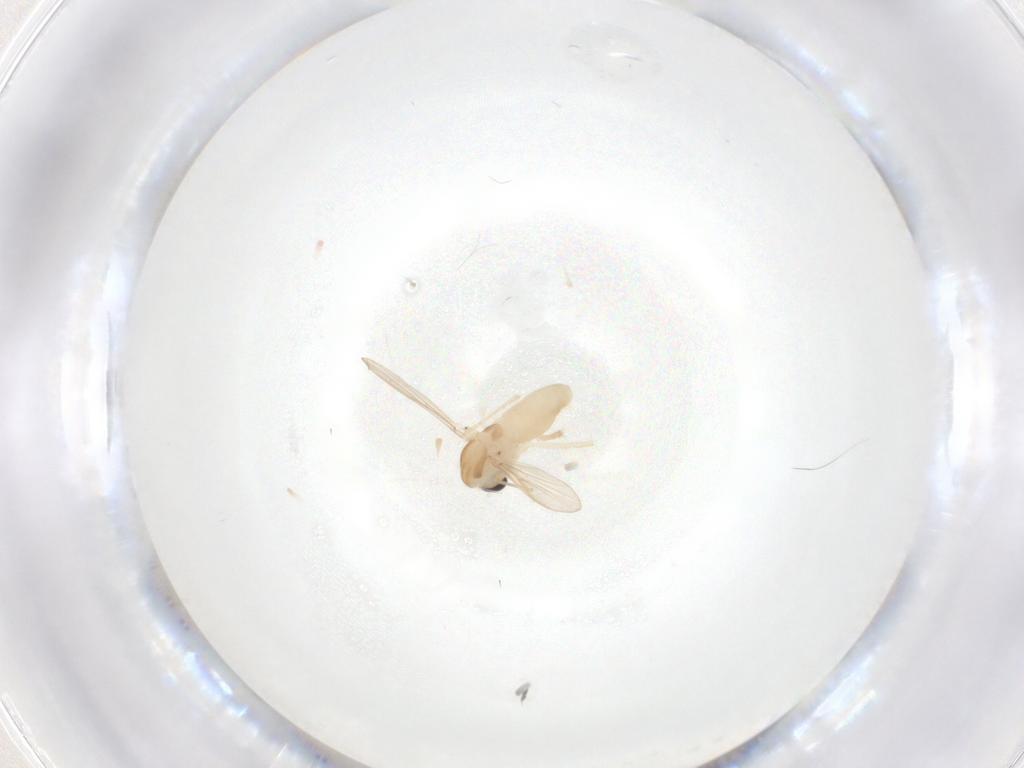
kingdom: Animalia
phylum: Arthropoda
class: Insecta
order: Diptera
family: Chironomidae
